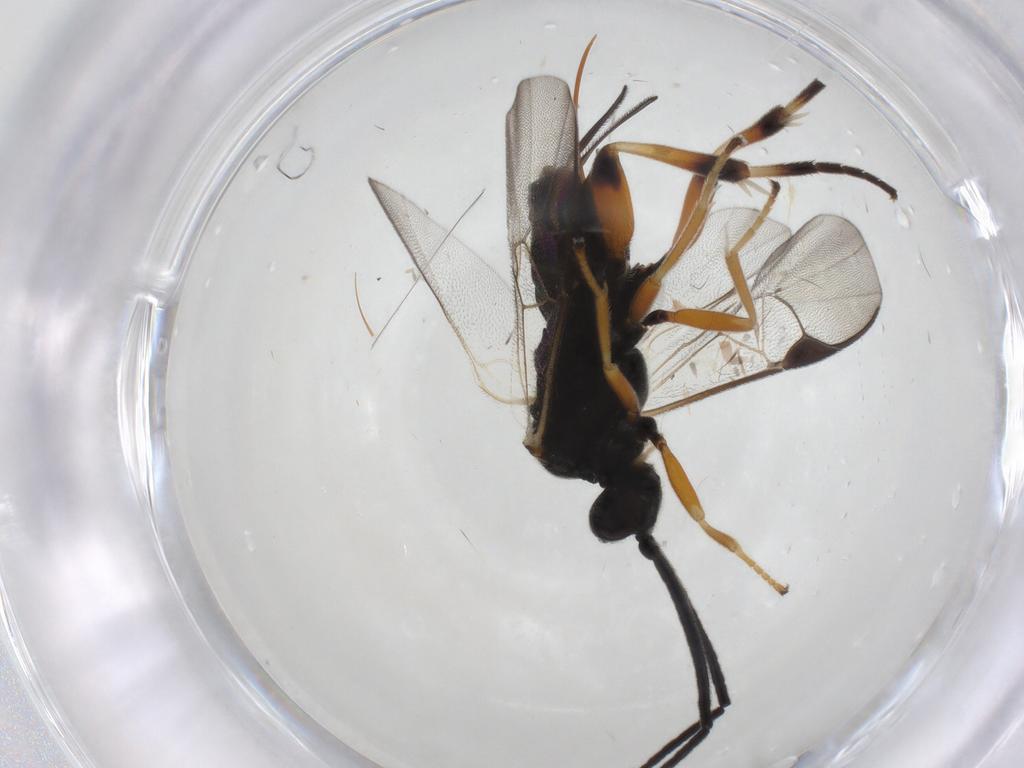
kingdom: Animalia
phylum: Arthropoda
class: Insecta
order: Hymenoptera
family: Braconidae
